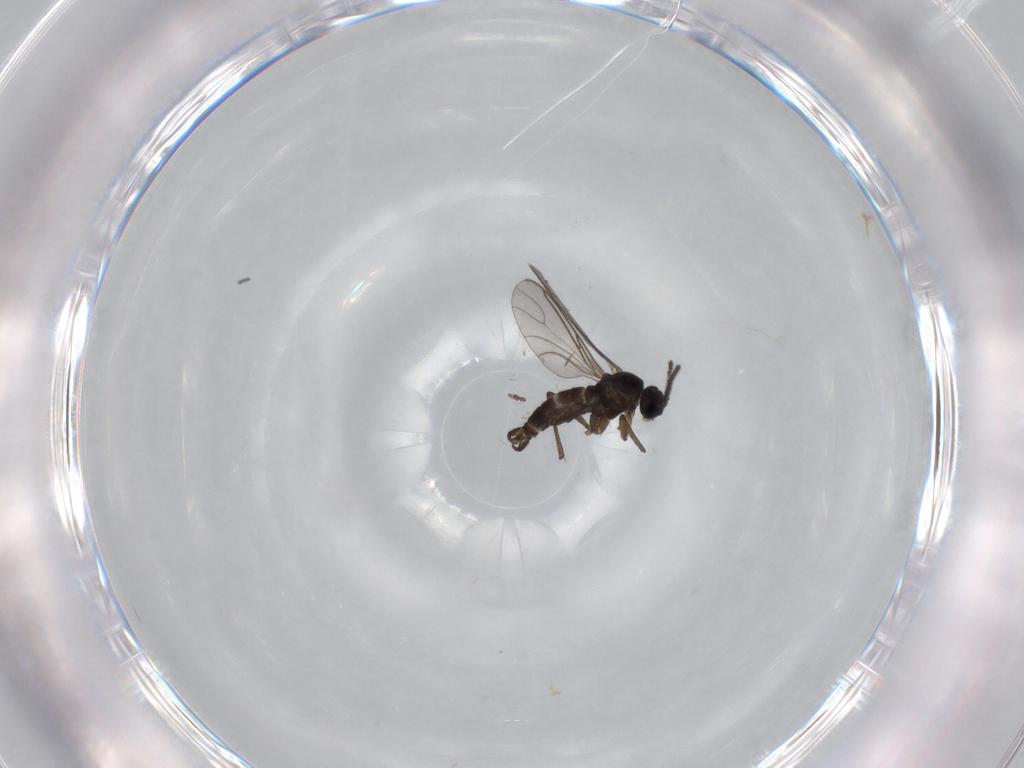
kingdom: Animalia
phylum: Arthropoda
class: Insecta
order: Diptera
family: Sciaridae
